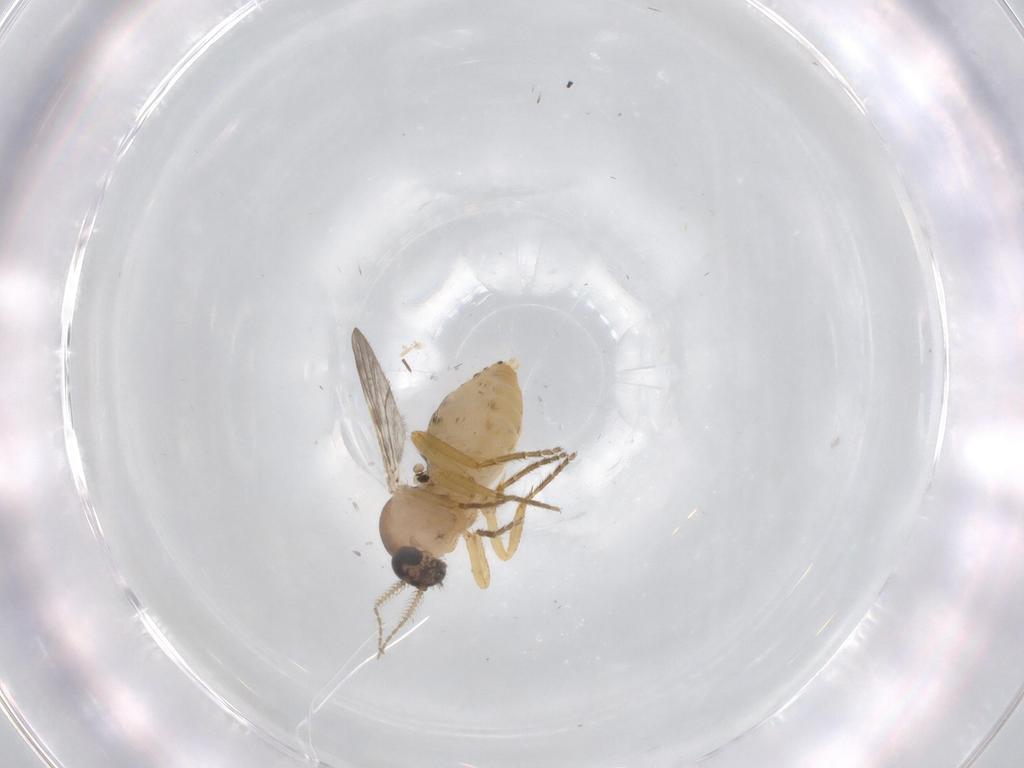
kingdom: Animalia
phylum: Arthropoda
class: Insecta
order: Diptera
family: Ceratopogonidae
